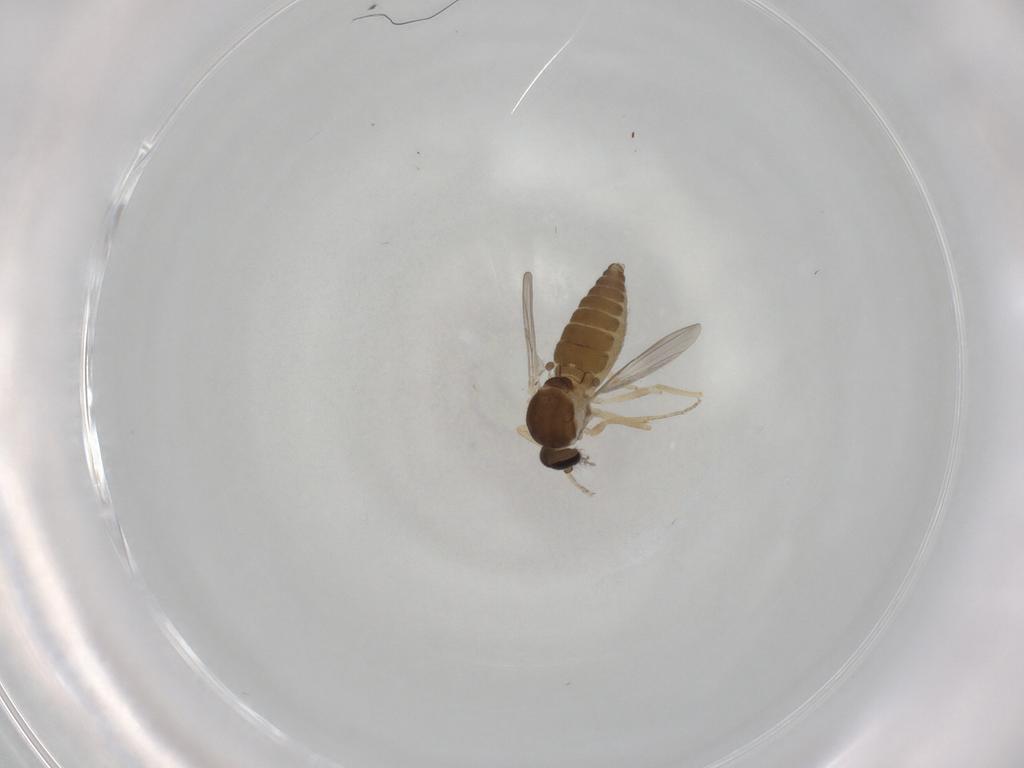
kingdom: Animalia
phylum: Arthropoda
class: Insecta
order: Diptera
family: Ceratopogonidae
